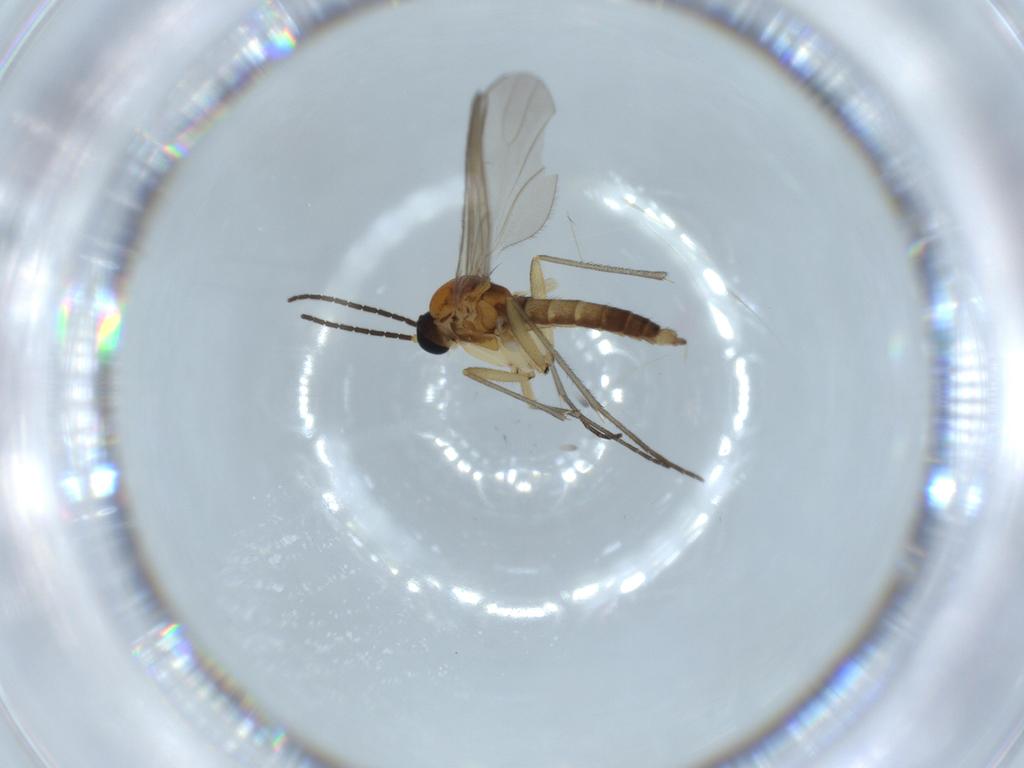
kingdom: Animalia
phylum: Arthropoda
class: Insecta
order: Diptera
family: Sciaridae
